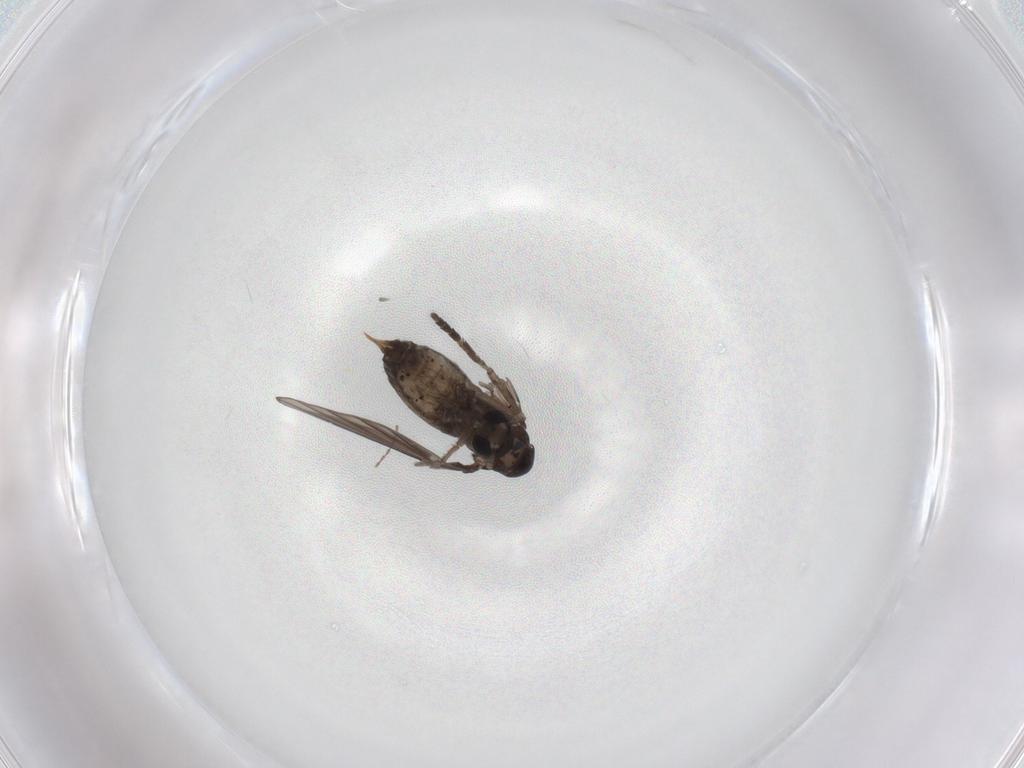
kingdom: Animalia
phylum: Arthropoda
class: Insecta
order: Diptera
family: Psychodidae
